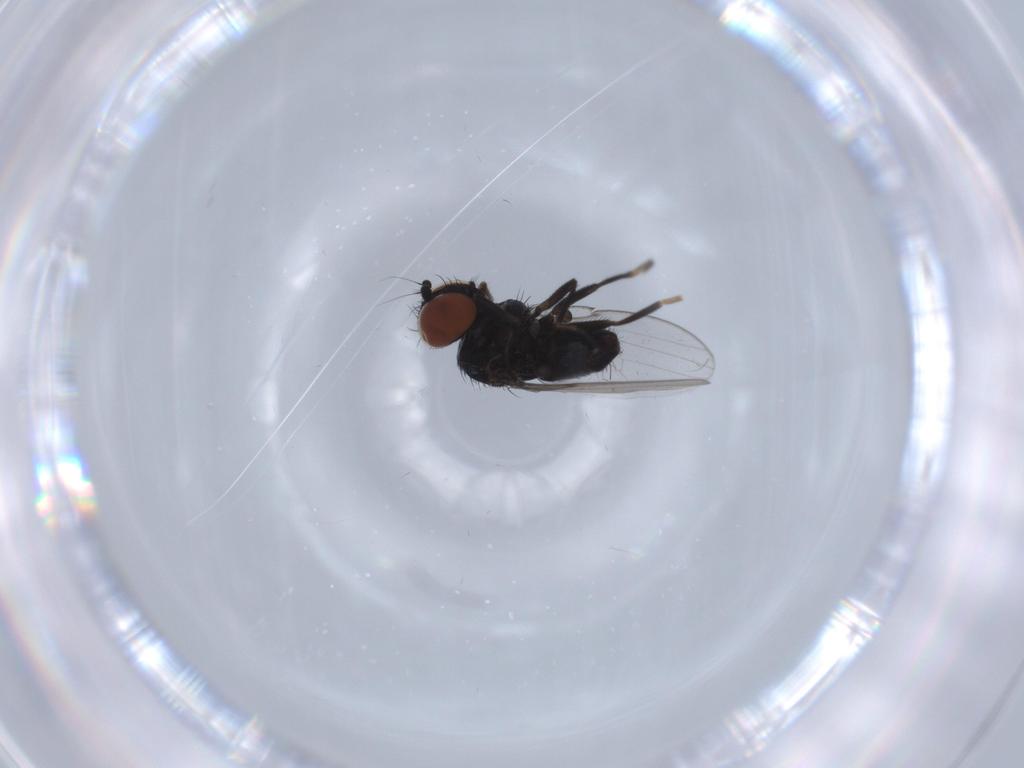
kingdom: Animalia
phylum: Arthropoda
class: Insecta
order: Diptera
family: Milichiidae
